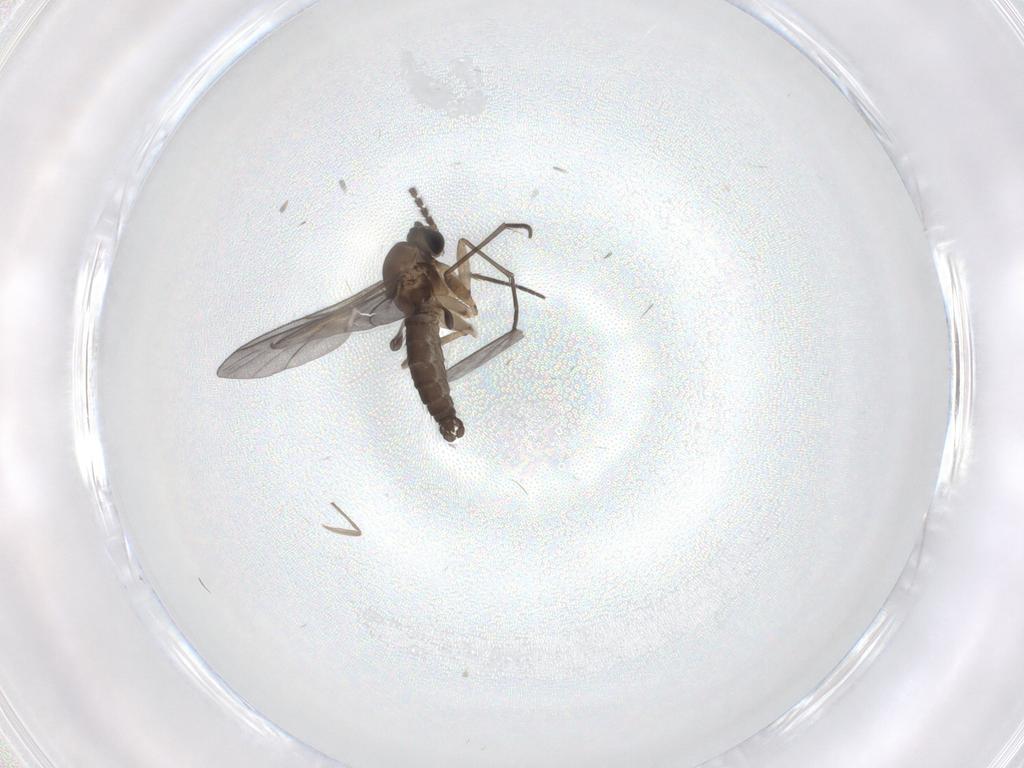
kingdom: Animalia
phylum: Arthropoda
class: Insecta
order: Diptera
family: Sciaridae
